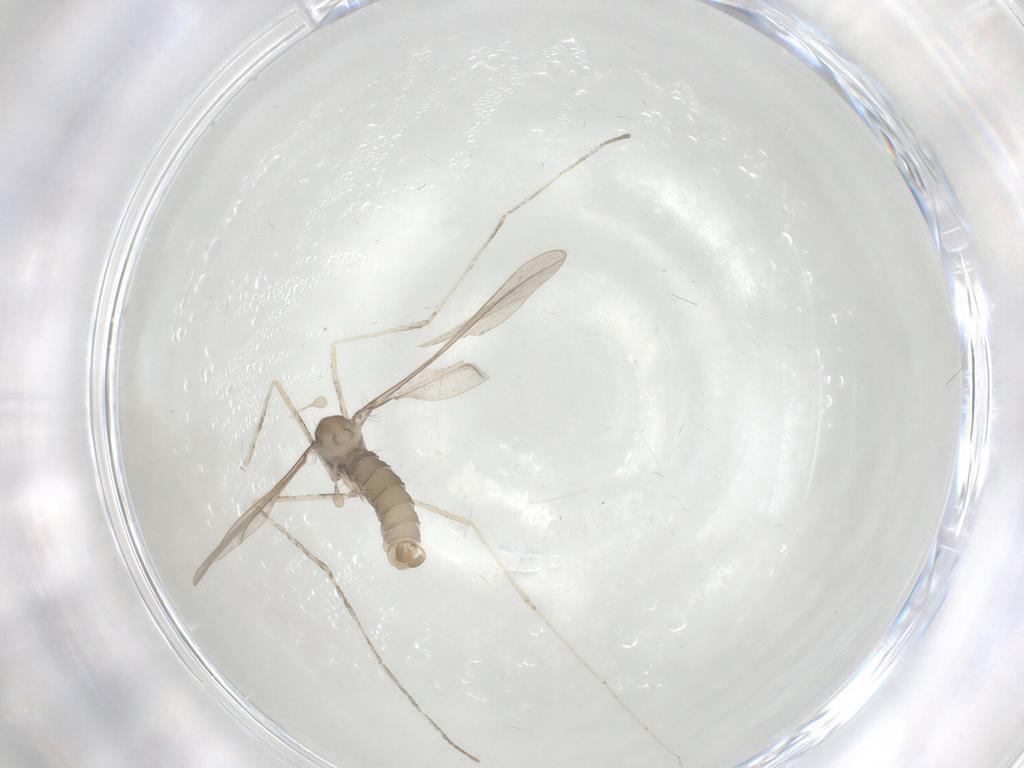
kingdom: Animalia
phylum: Arthropoda
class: Insecta
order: Diptera
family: Cecidomyiidae
